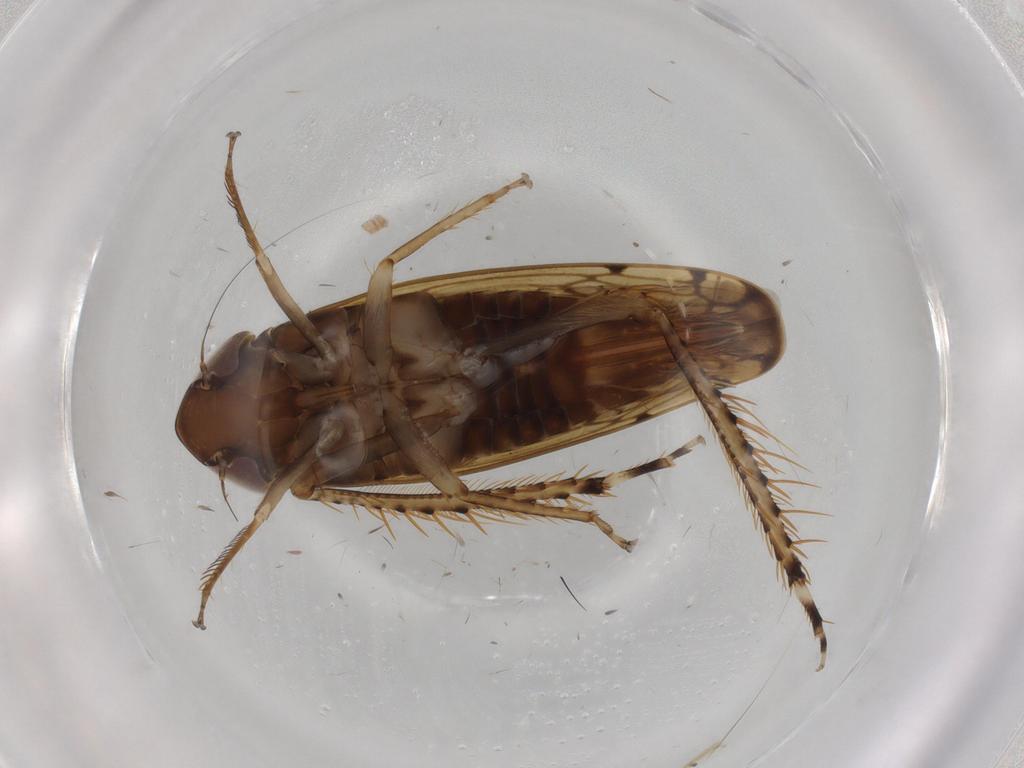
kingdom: Animalia
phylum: Arthropoda
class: Insecta
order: Hemiptera
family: Cicadellidae
